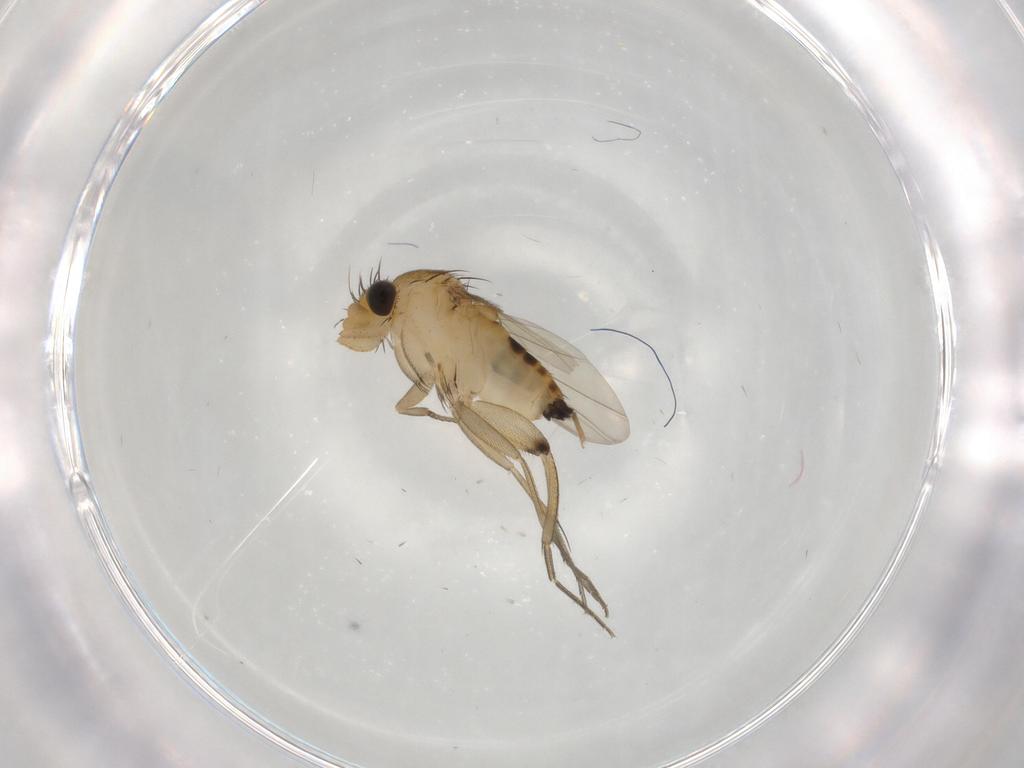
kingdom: Animalia
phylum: Arthropoda
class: Insecta
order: Diptera
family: Phoridae
